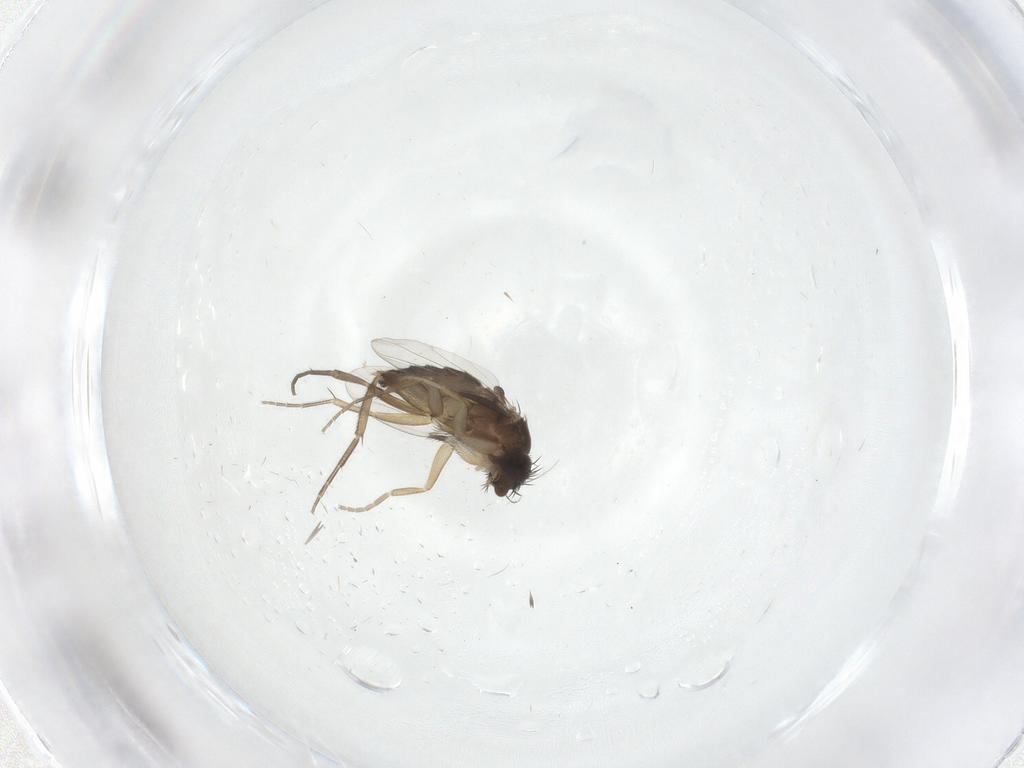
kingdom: Animalia
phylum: Arthropoda
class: Insecta
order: Diptera
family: Phoridae
